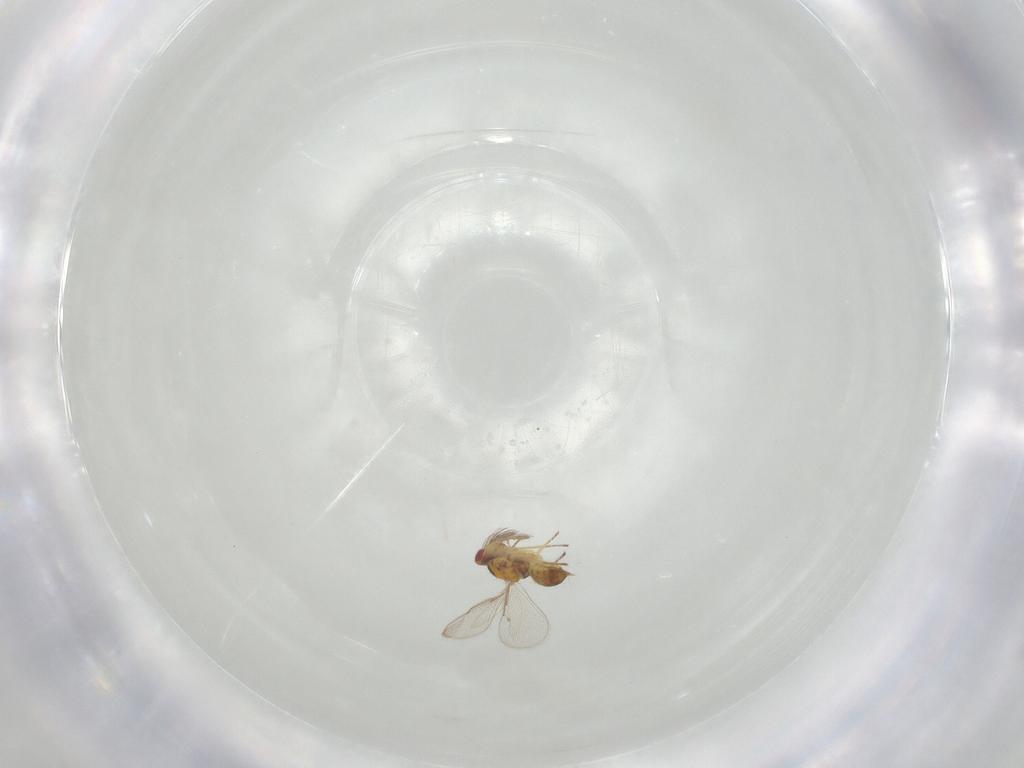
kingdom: Animalia
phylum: Arthropoda
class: Insecta
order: Hymenoptera
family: Eulophidae
